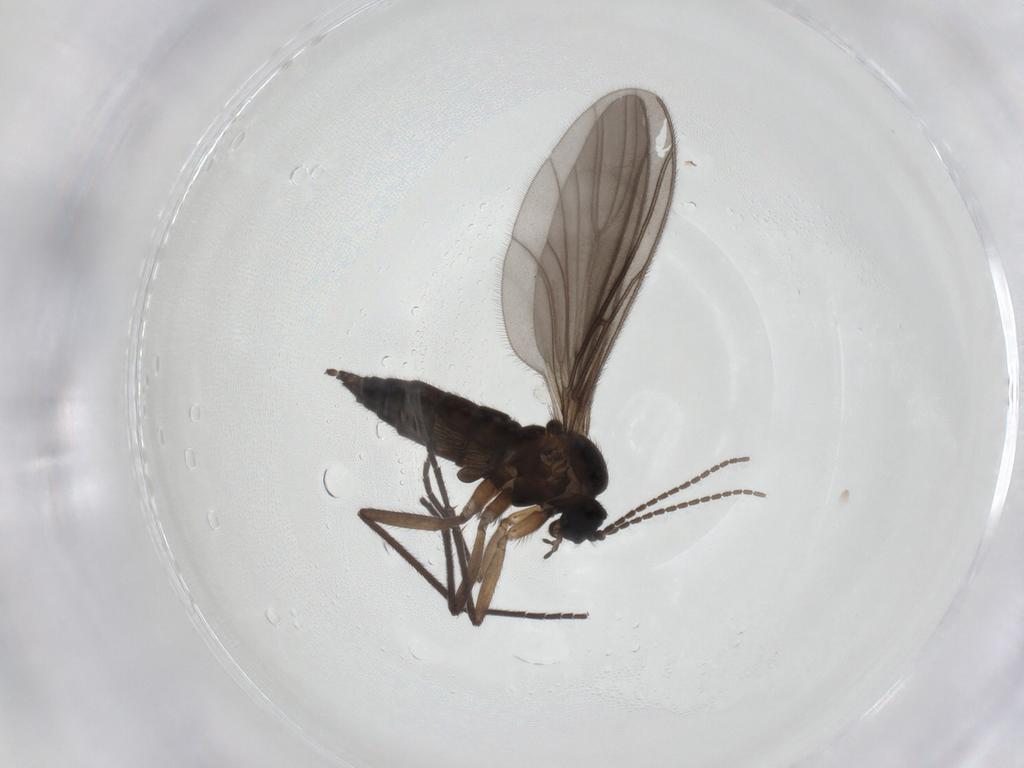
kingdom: Animalia
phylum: Arthropoda
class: Insecta
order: Diptera
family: Sciaridae
